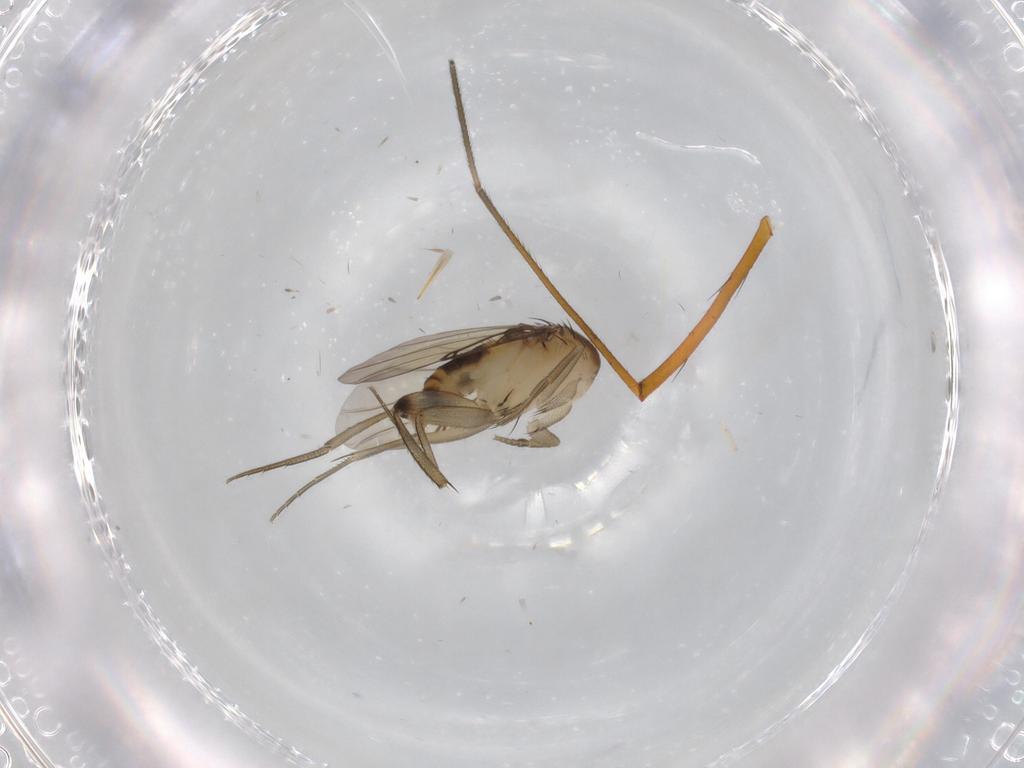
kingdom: Animalia
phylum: Arthropoda
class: Insecta
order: Diptera
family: Phoridae
